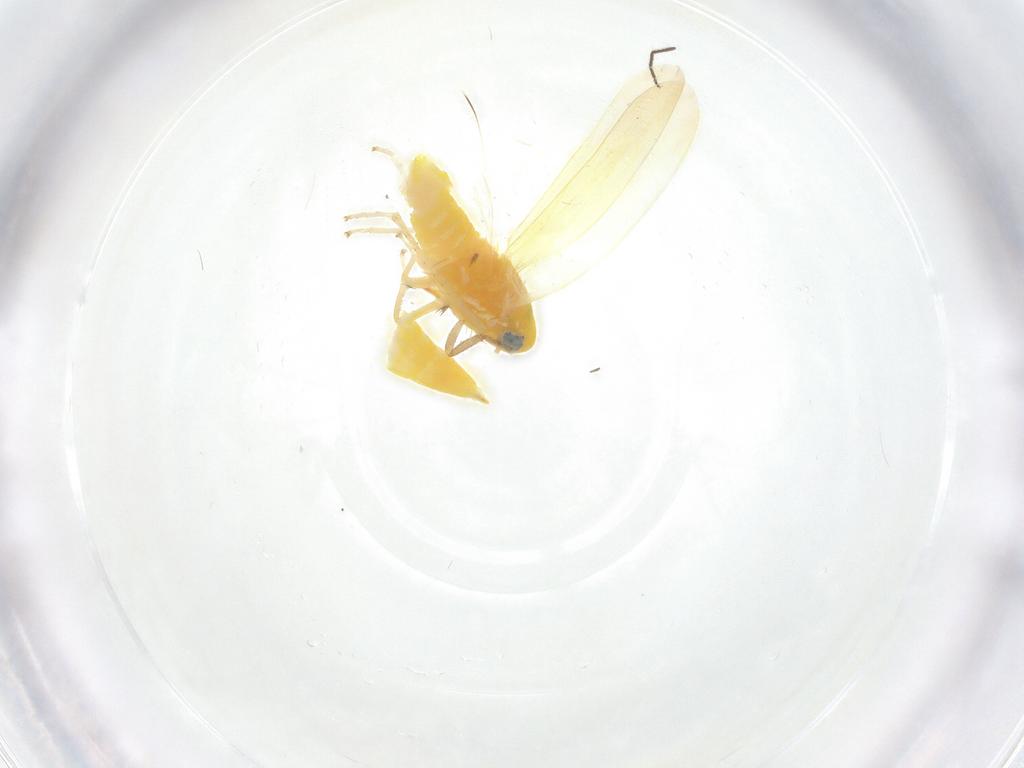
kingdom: Animalia
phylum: Arthropoda
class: Insecta
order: Hemiptera
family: Cicadellidae
